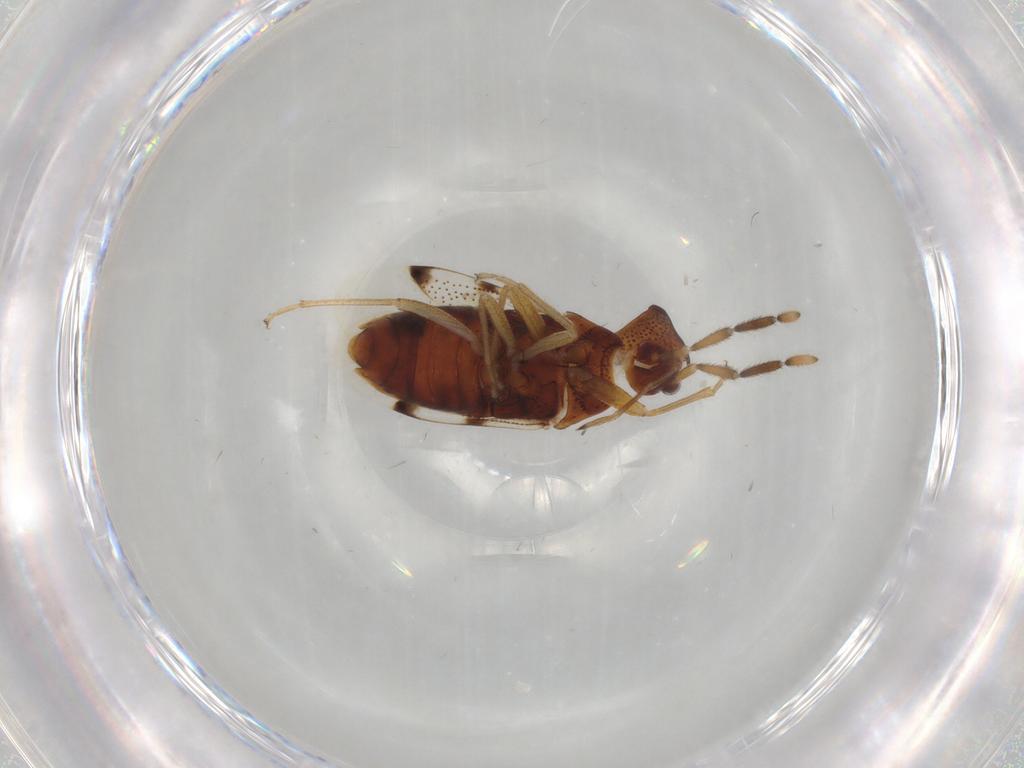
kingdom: Animalia
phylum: Arthropoda
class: Insecta
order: Hemiptera
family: Rhyparochromidae
